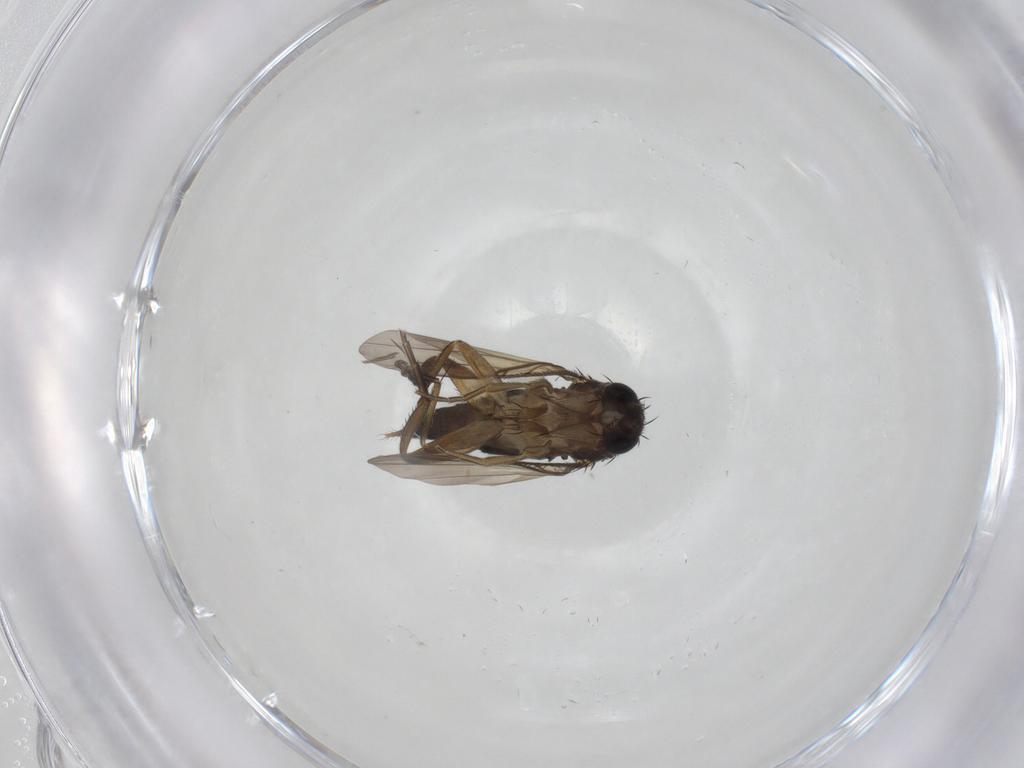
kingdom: Animalia
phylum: Arthropoda
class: Insecta
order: Diptera
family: Phoridae
